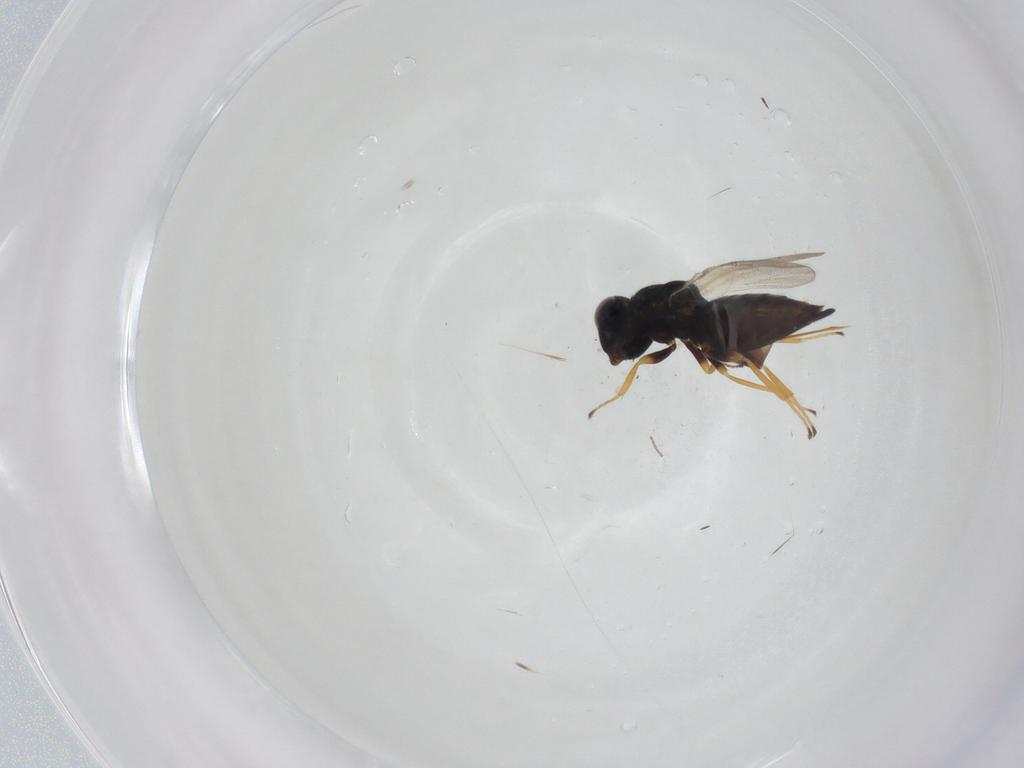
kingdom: Animalia
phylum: Arthropoda
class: Insecta
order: Hymenoptera
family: Pteromalidae
